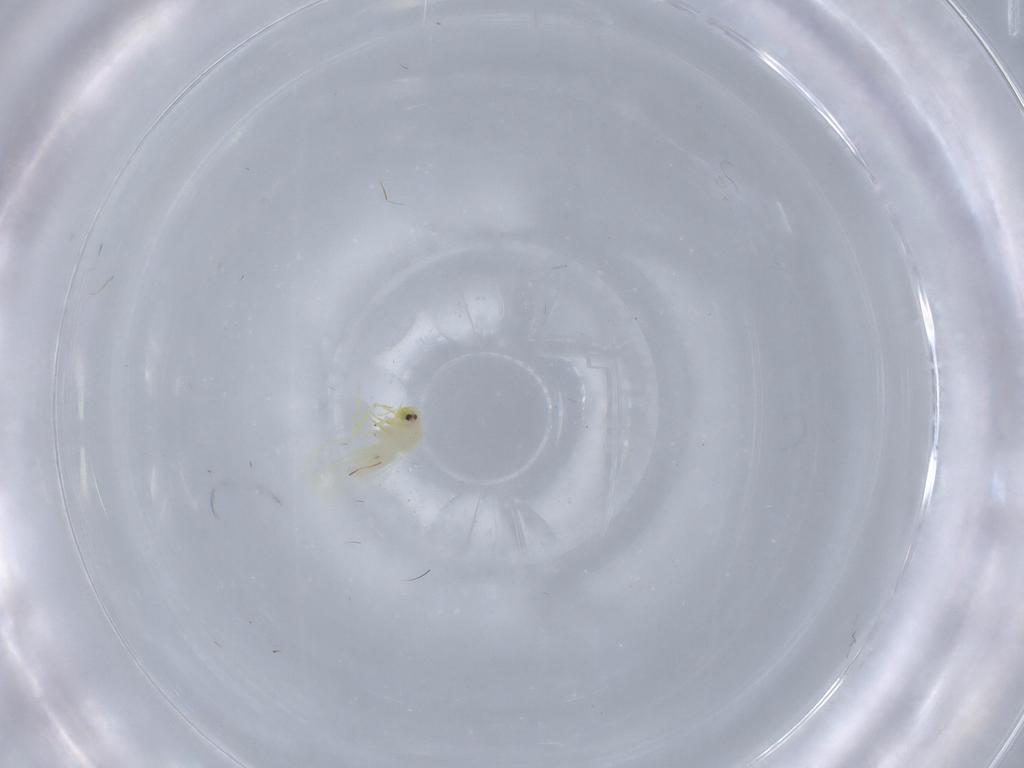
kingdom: Animalia
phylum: Arthropoda
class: Insecta
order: Hemiptera
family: Aleyrodidae
